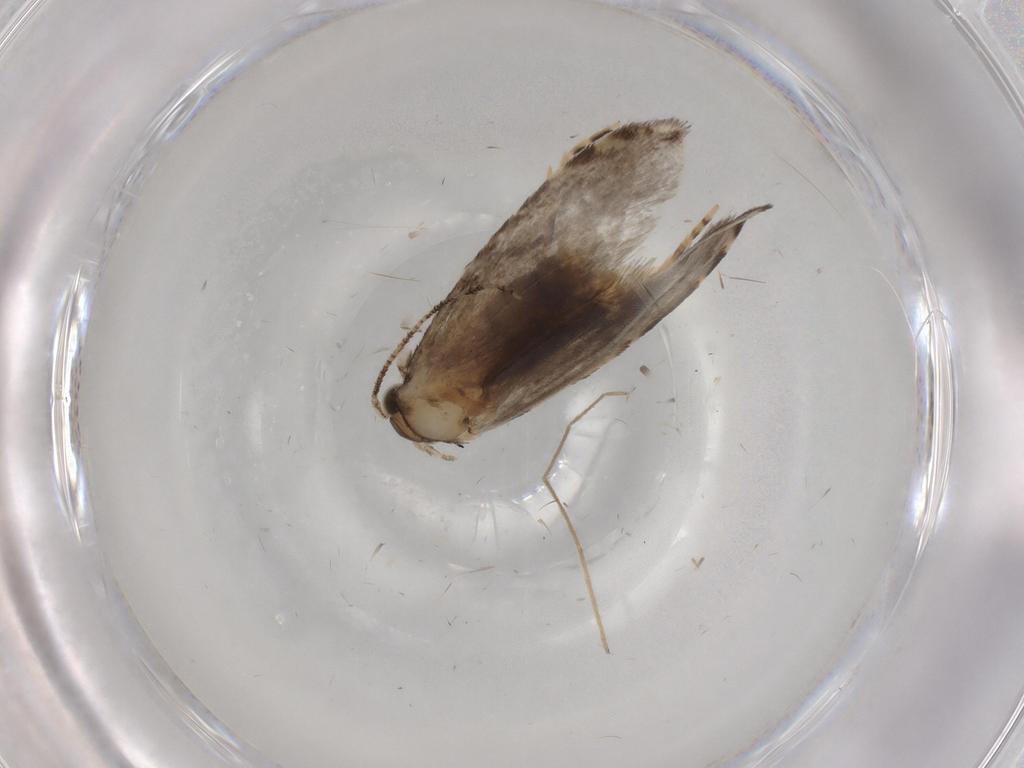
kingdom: Animalia
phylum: Arthropoda
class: Insecta
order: Lepidoptera
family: Tineidae
